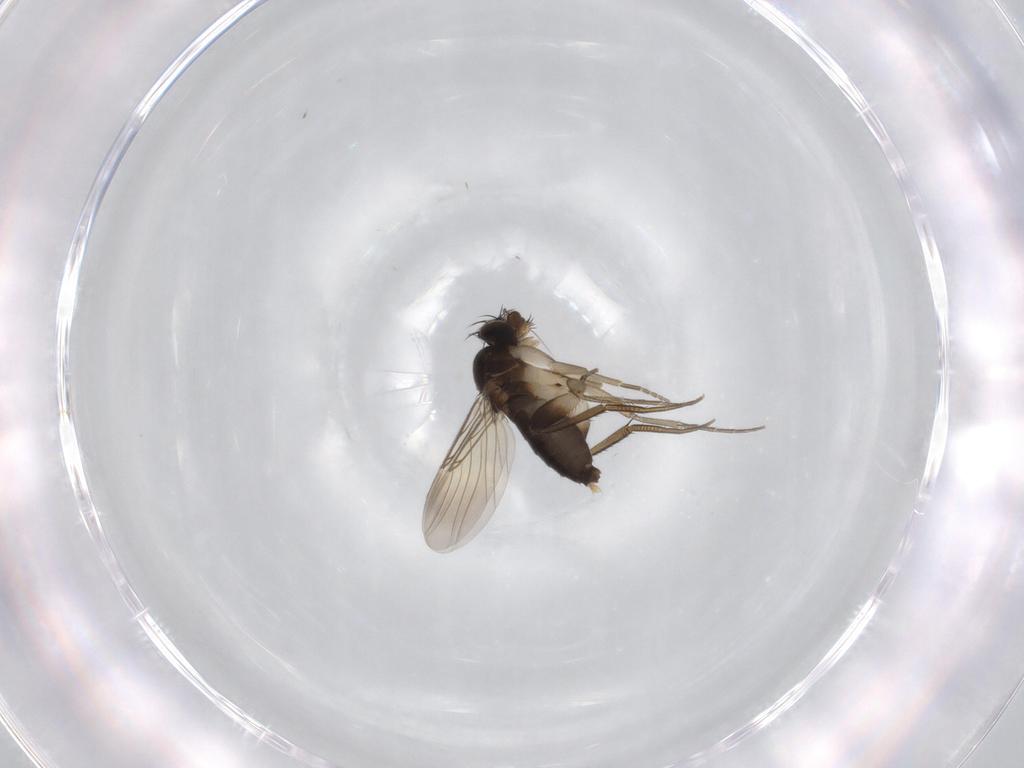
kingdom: Animalia
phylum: Arthropoda
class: Insecta
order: Diptera
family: Phoridae
